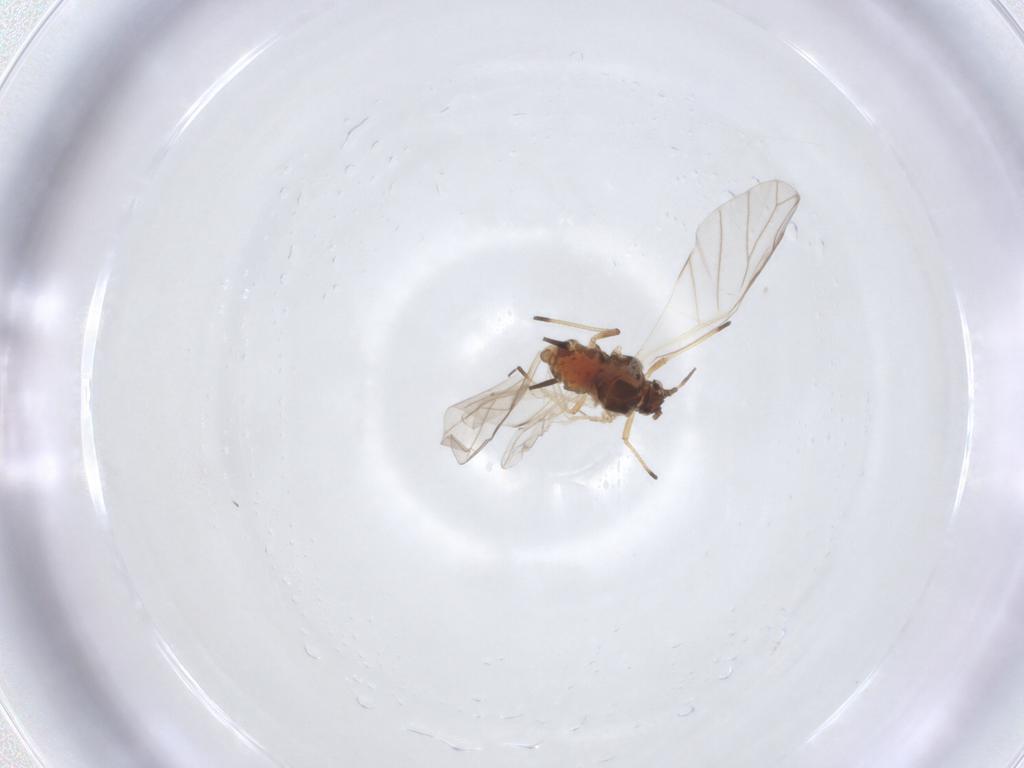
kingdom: Animalia
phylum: Arthropoda
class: Insecta
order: Hemiptera
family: Aphididae
